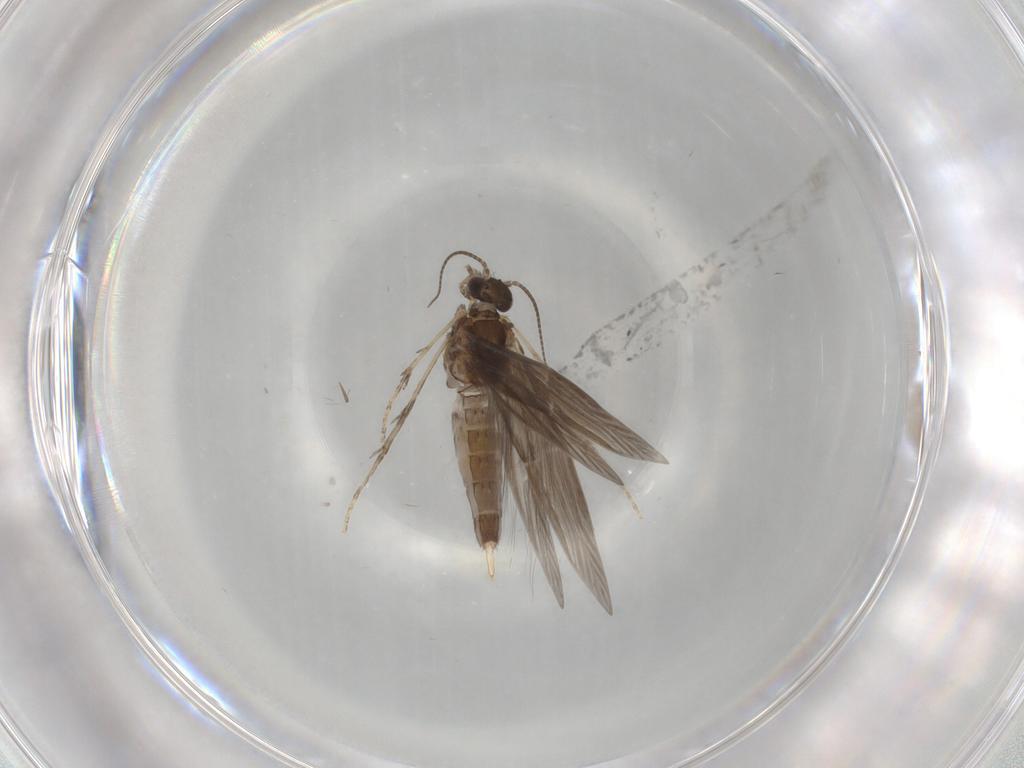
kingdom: Animalia
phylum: Arthropoda
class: Insecta
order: Trichoptera
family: Hydroptilidae
